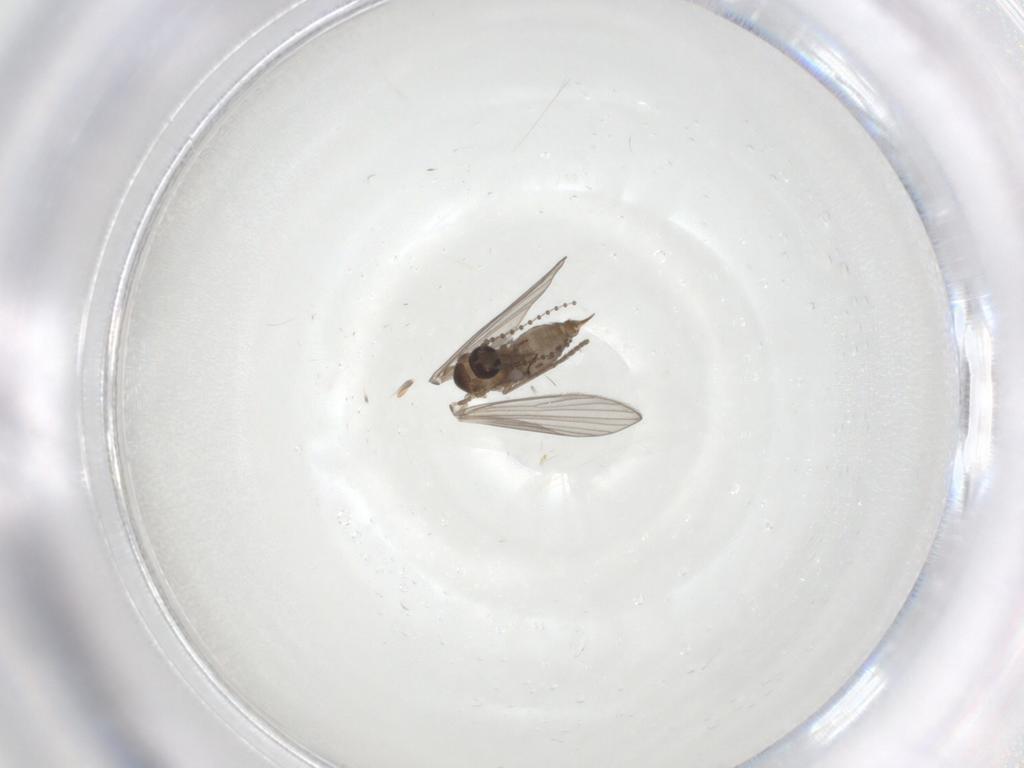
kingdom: Animalia
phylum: Arthropoda
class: Insecta
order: Diptera
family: Psychodidae
